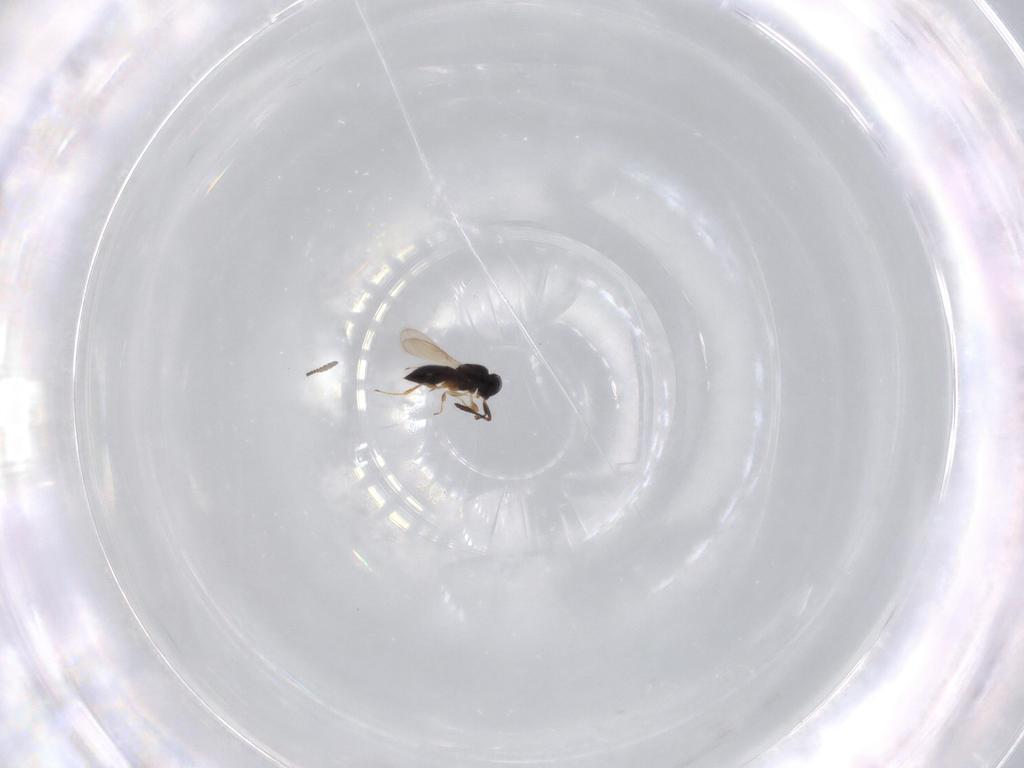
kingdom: Animalia
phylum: Arthropoda
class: Insecta
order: Hymenoptera
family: Scelionidae
